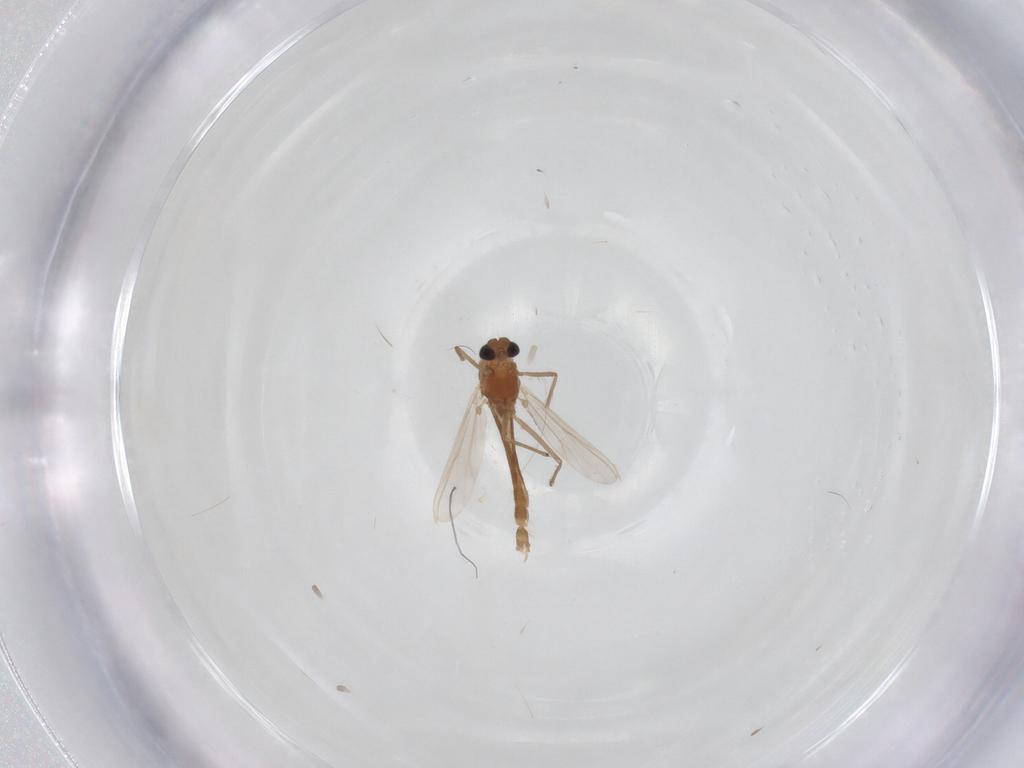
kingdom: Animalia
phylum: Arthropoda
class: Insecta
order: Diptera
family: Chironomidae
